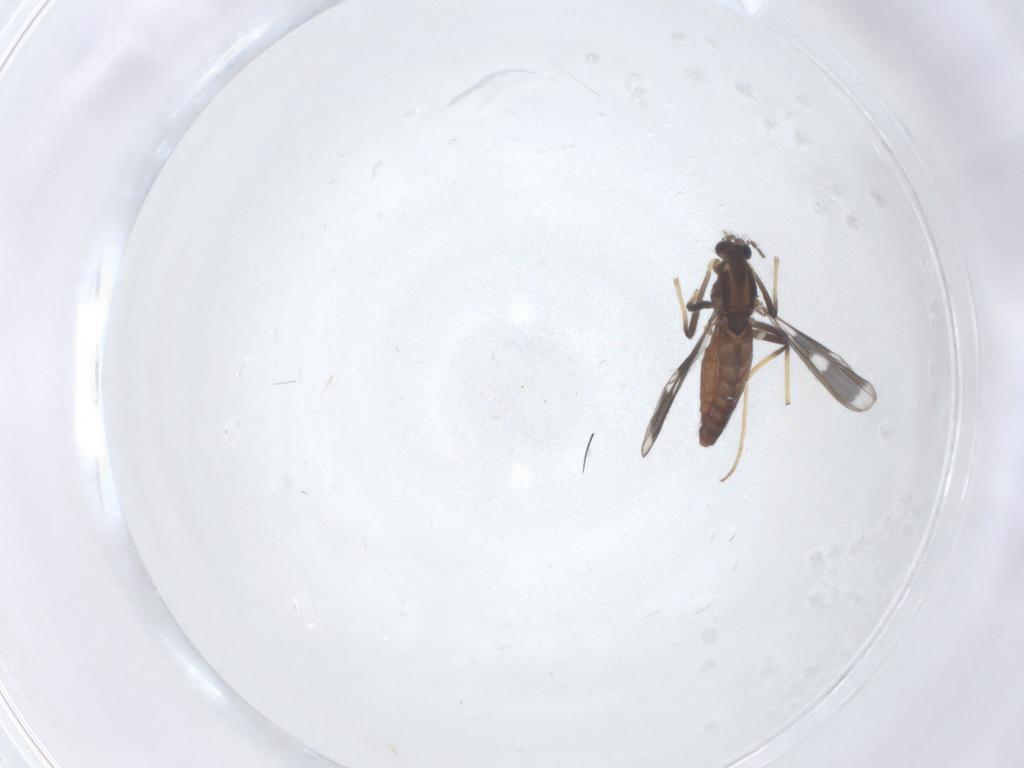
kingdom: Animalia
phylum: Arthropoda
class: Insecta
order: Diptera
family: Chironomidae
